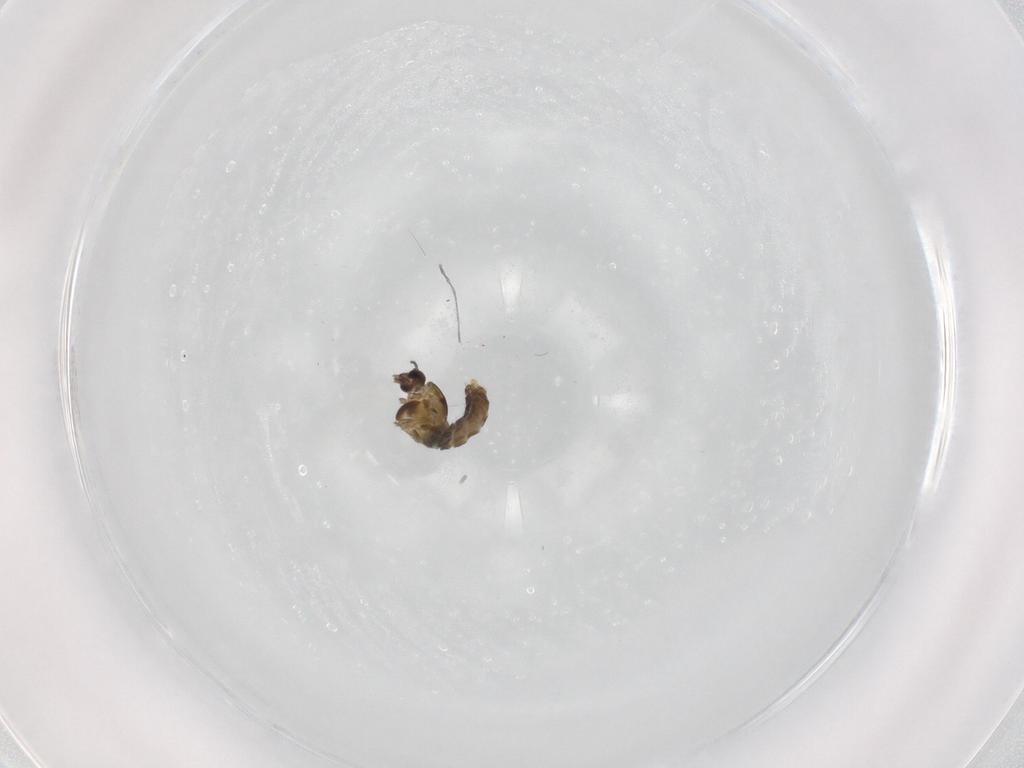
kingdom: Animalia
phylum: Arthropoda
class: Insecta
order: Diptera
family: Chironomidae
